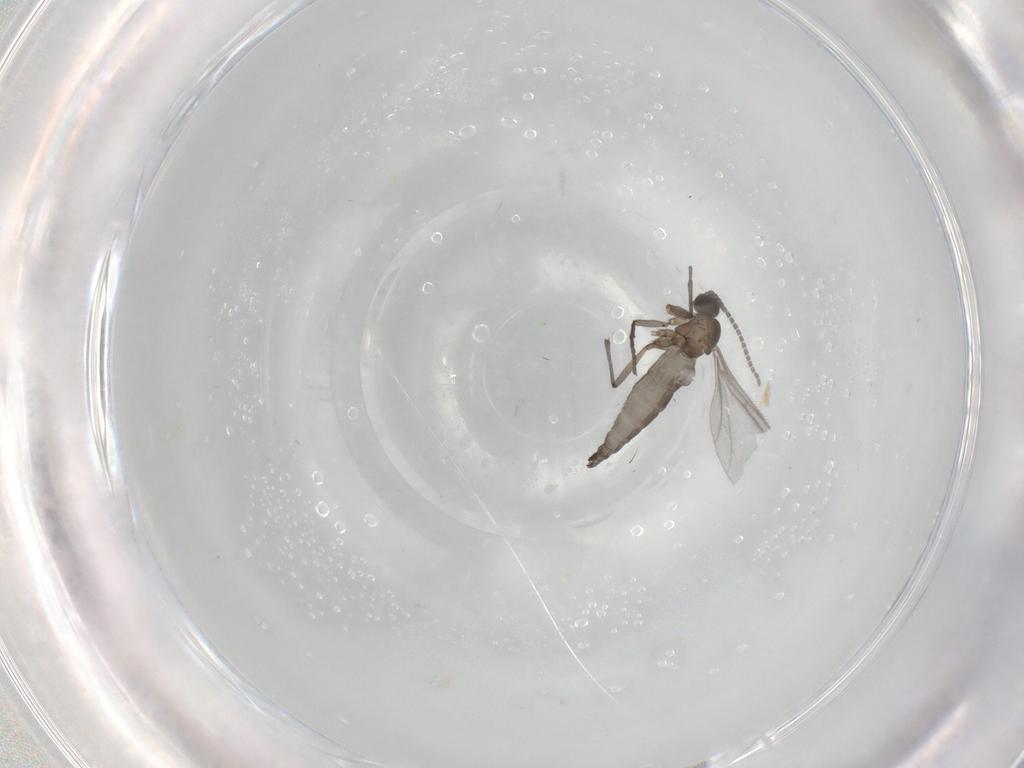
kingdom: Animalia
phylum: Arthropoda
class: Insecta
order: Diptera
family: Sciaridae
